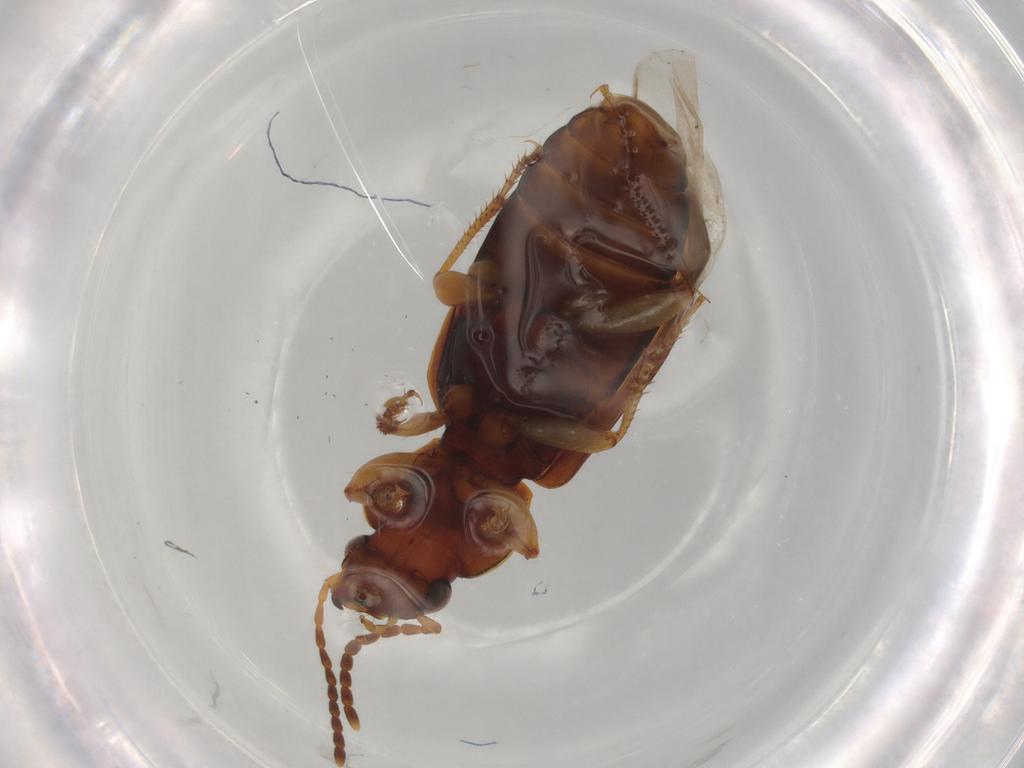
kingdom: Animalia
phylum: Arthropoda
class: Insecta
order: Coleoptera
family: Carabidae
